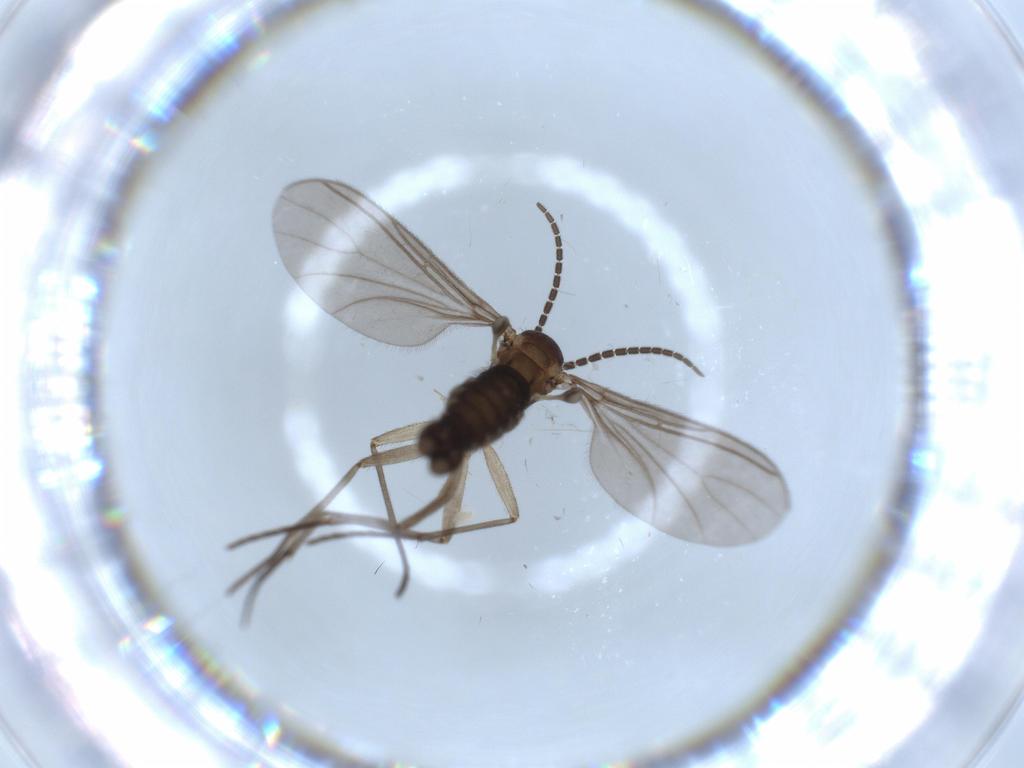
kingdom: Animalia
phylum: Arthropoda
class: Insecta
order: Diptera
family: Sciaridae
